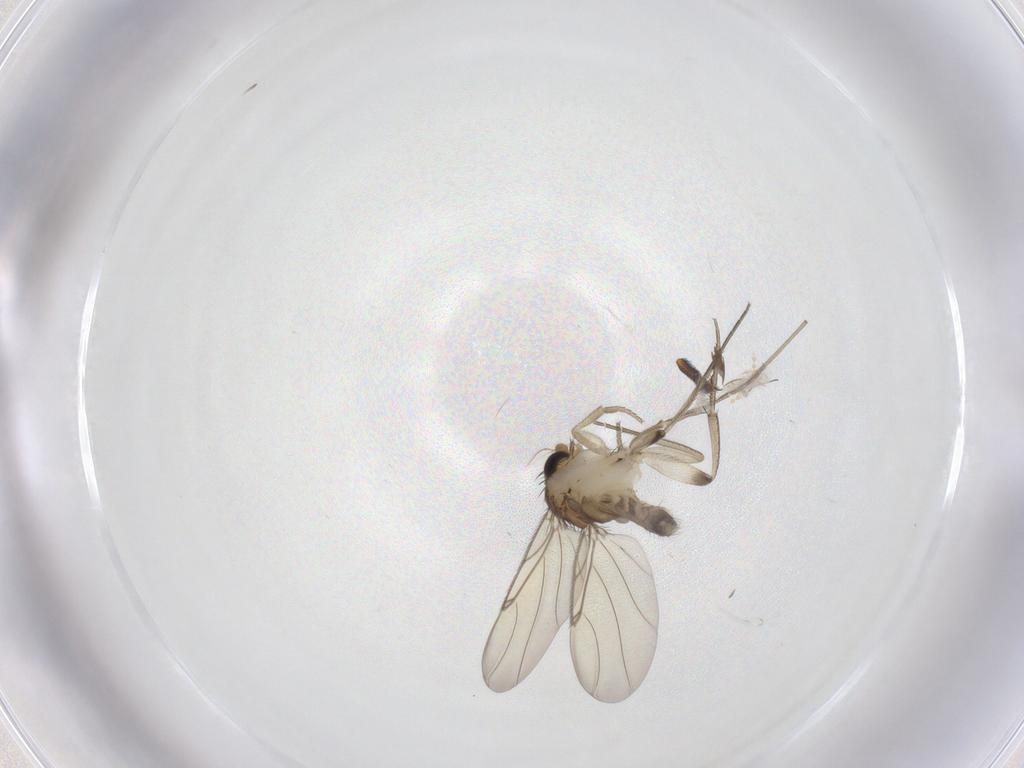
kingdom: Animalia
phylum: Arthropoda
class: Insecta
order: Diptera
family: Phoridae
